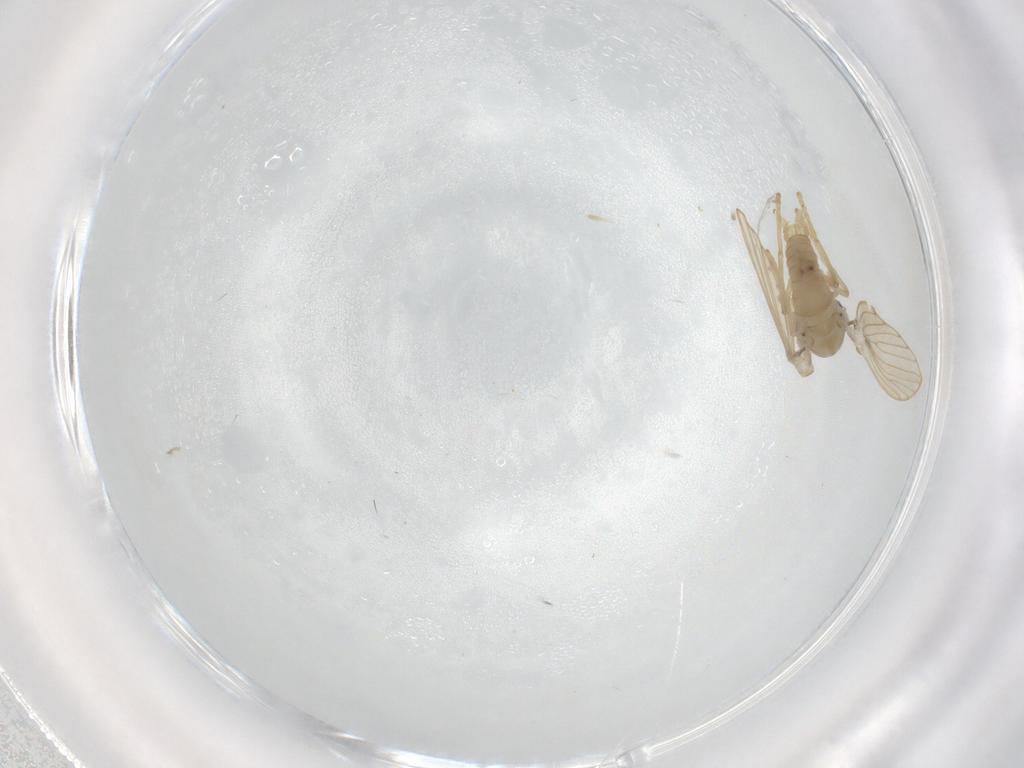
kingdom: Animalia
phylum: Arthropoda
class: Insecta
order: Diptera
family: Psychodidae
